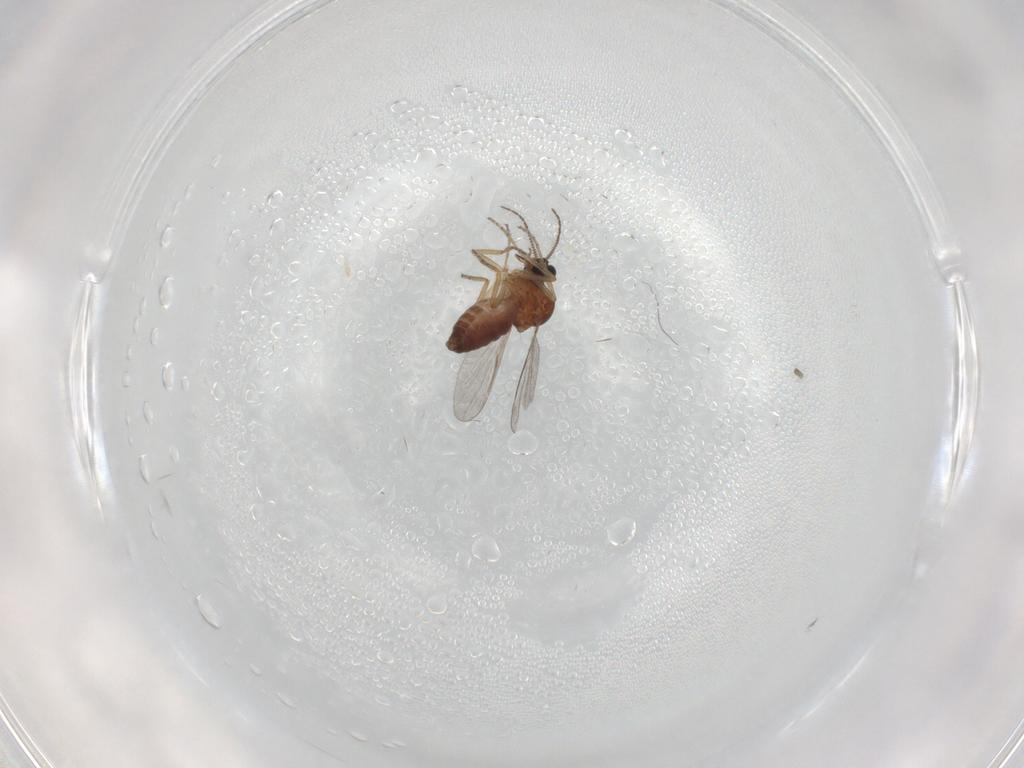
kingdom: Animalia
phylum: Arthropoda
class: Insecta
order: Diptera
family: Ceratopogonidae
